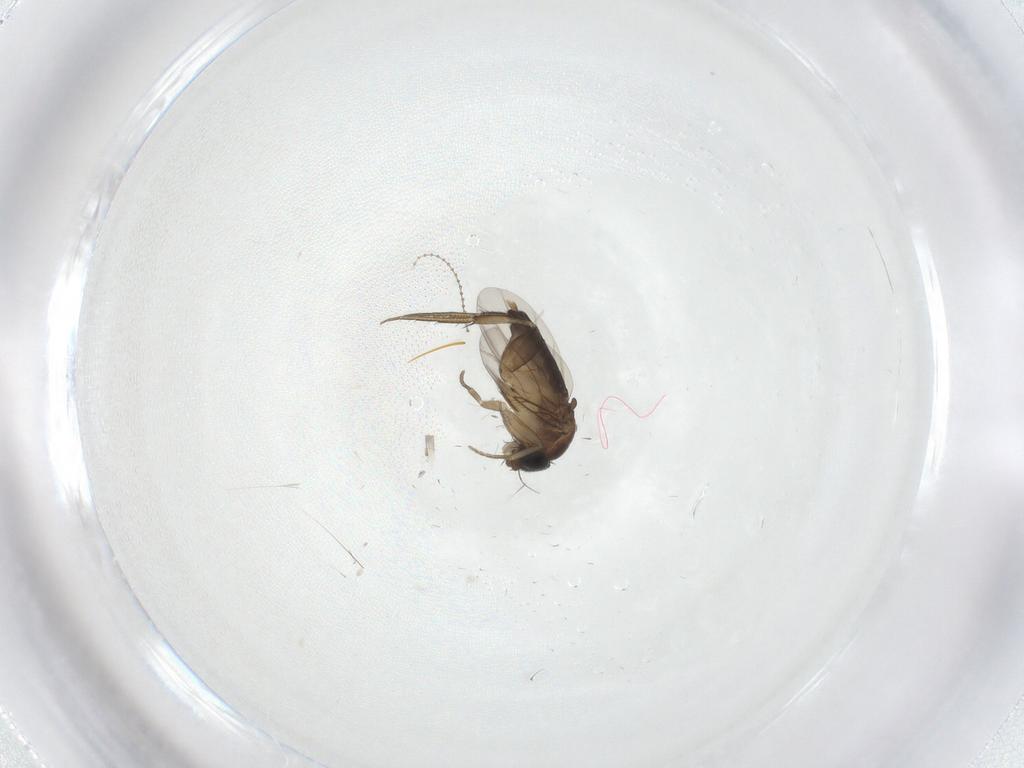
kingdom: Animalia
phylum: Arthropoda
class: Insecta
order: Diptera
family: Phoridae
